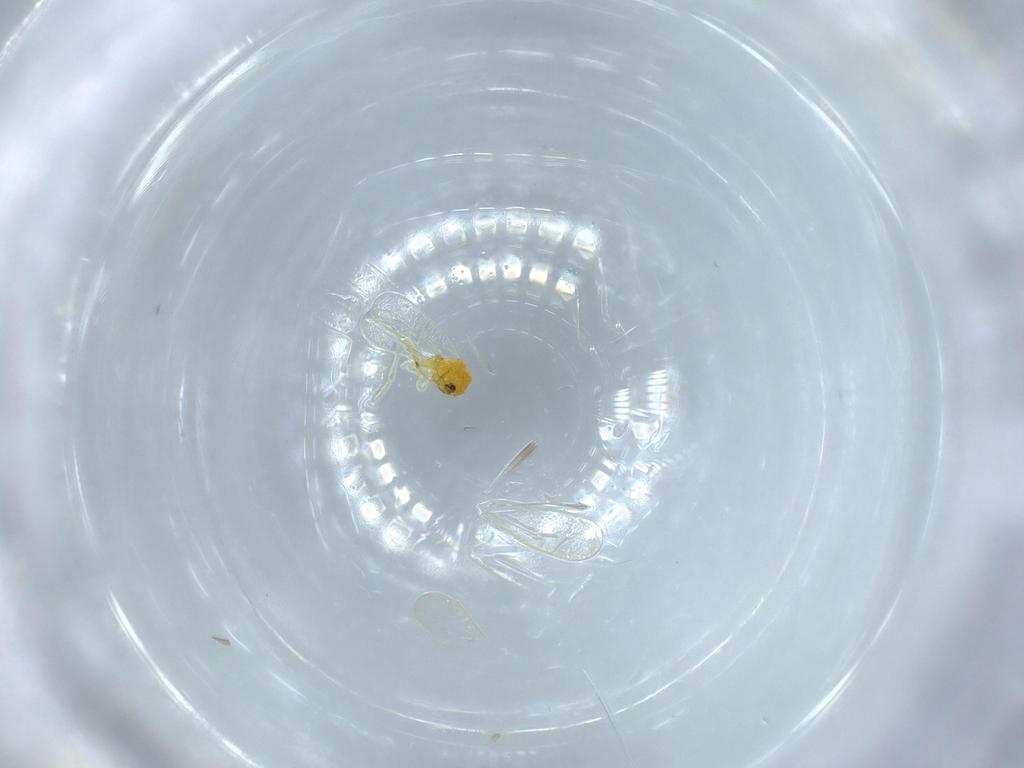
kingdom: Animalia
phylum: Arthropoda
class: Insecta
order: Hemiptera
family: Aleyrodidae
